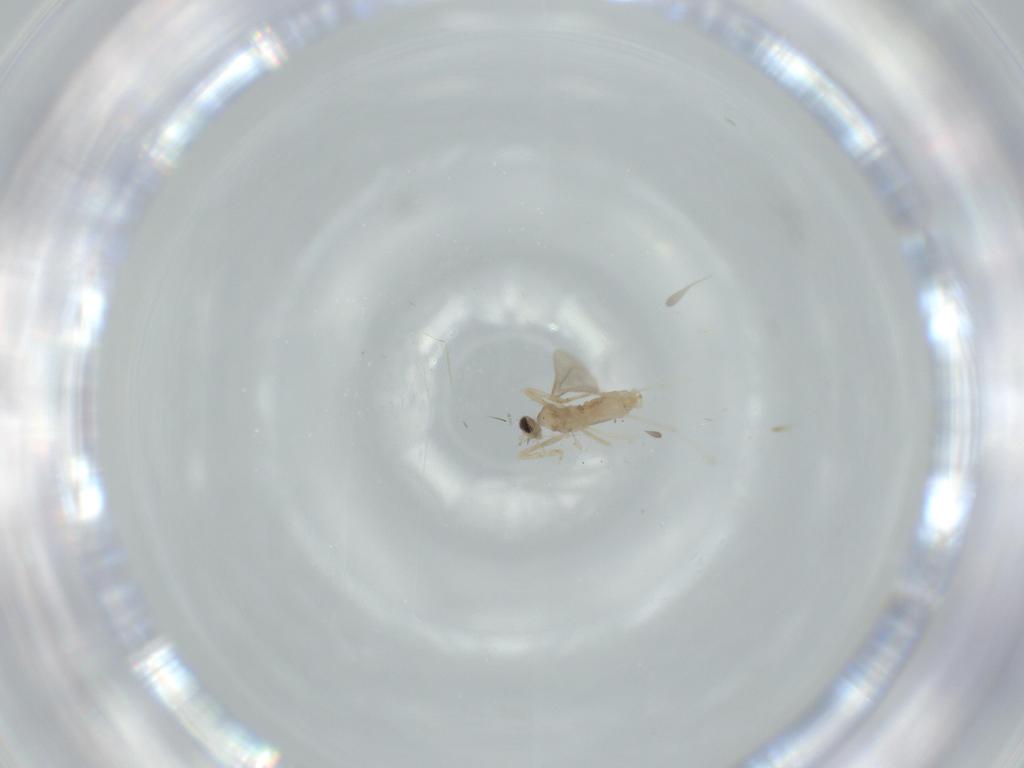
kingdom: Animalia
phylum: Arthropoda
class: Insecta
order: Diptera
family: Cecidomyiidae
